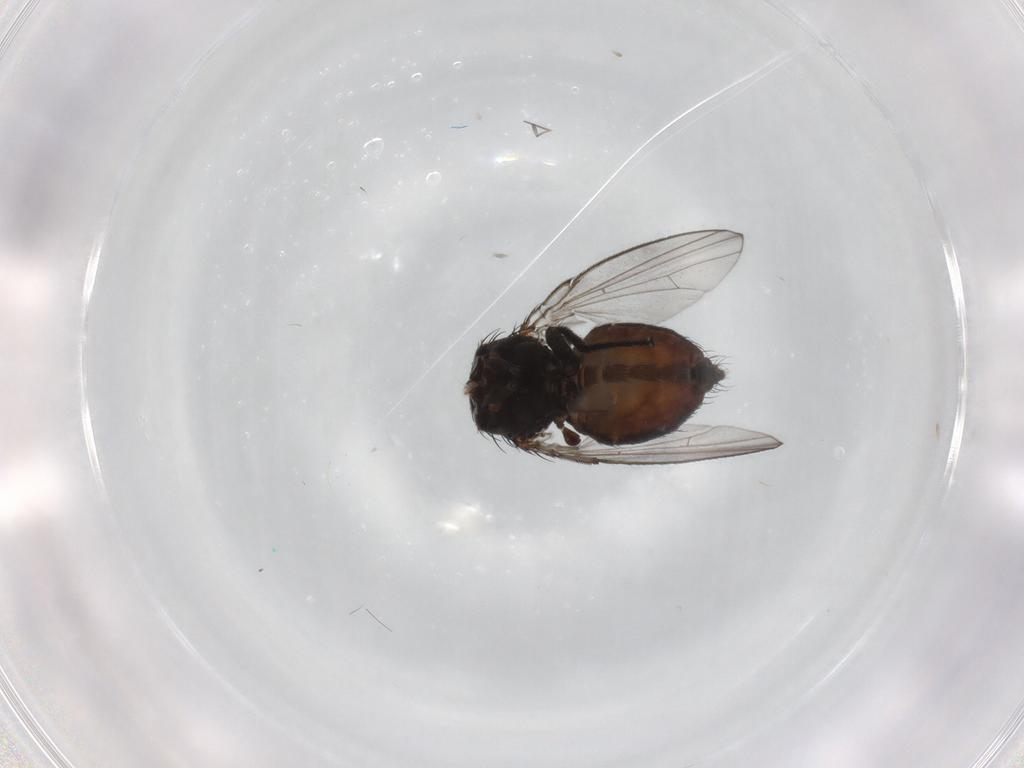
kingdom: Animalia
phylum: Arthropoda
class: Insecta
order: Diptera
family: Milichiidae
